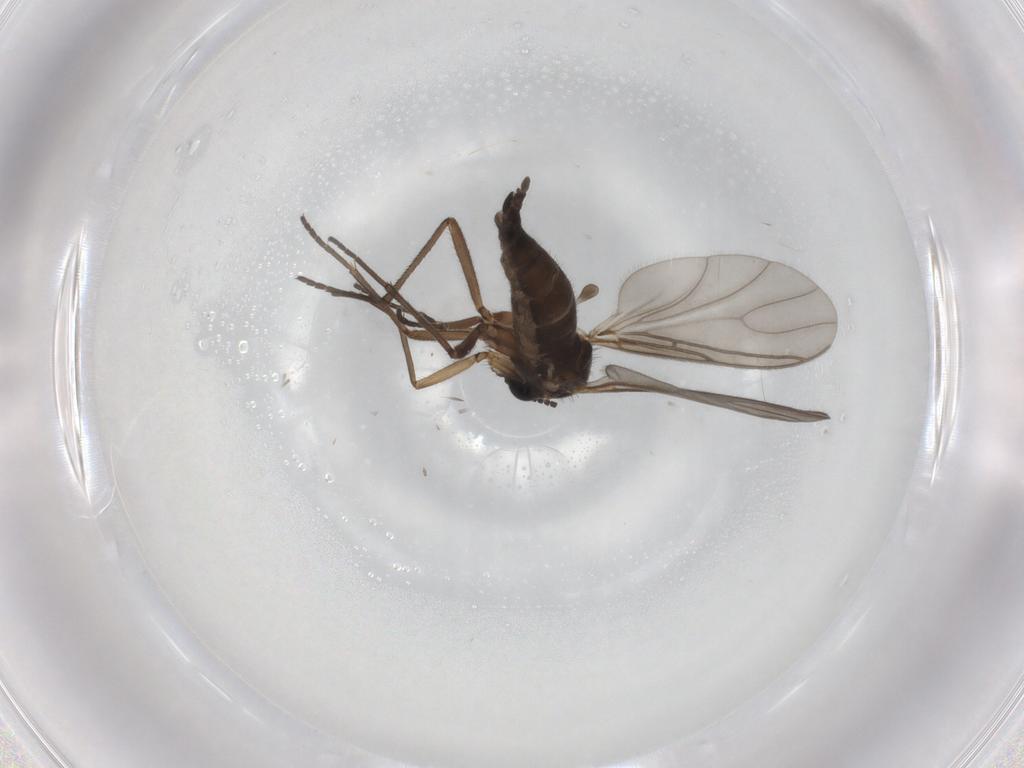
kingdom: Animalia
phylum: Arthropoda
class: Insecta
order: Diptera
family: Sciaridae
